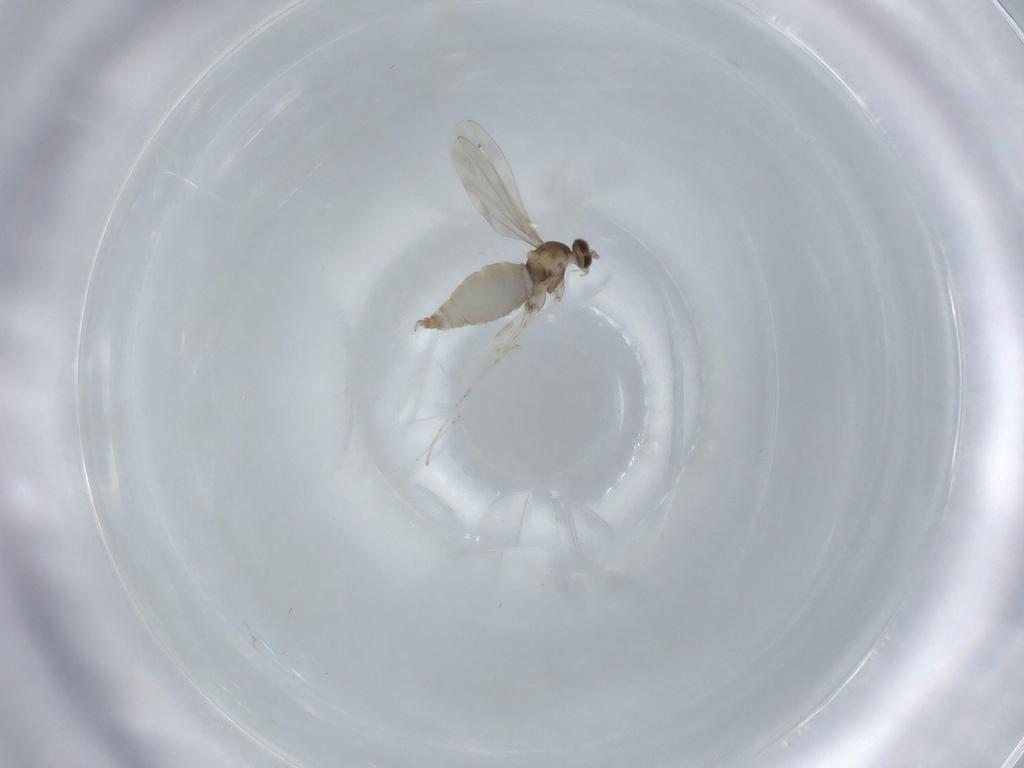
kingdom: Animalia
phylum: Arthropoda
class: Insecta
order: Diptera
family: Cecidomyiidae
